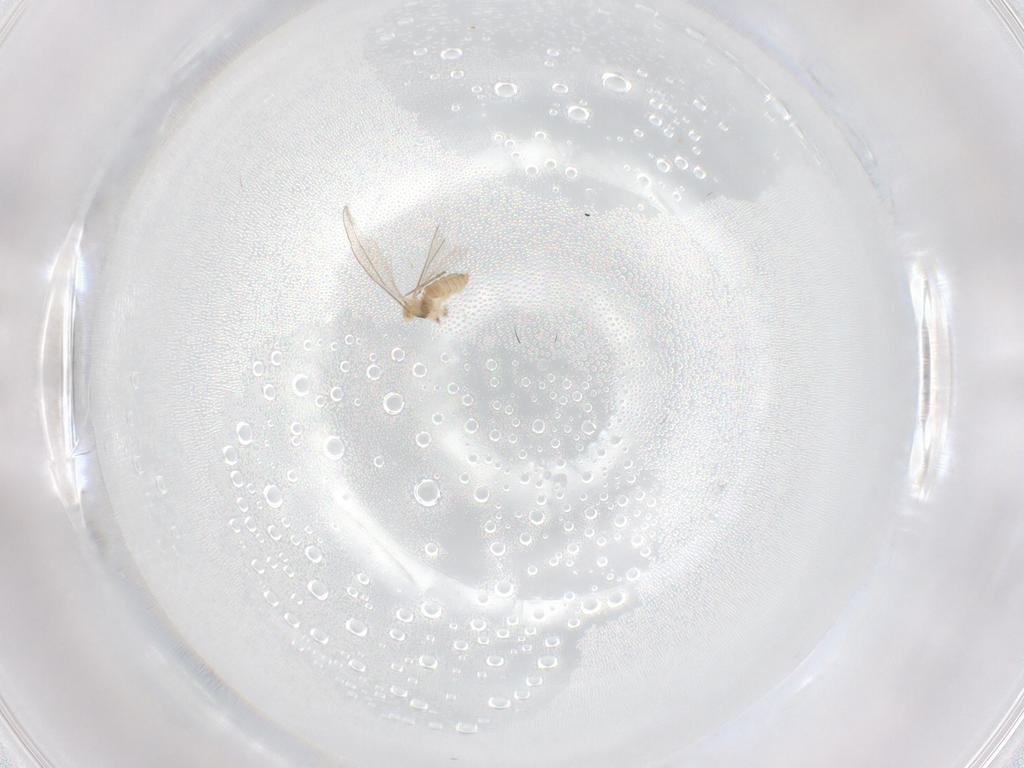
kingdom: Animalia
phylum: Arthropoda
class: Insecta
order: Diptera
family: Cecidomyiidae
